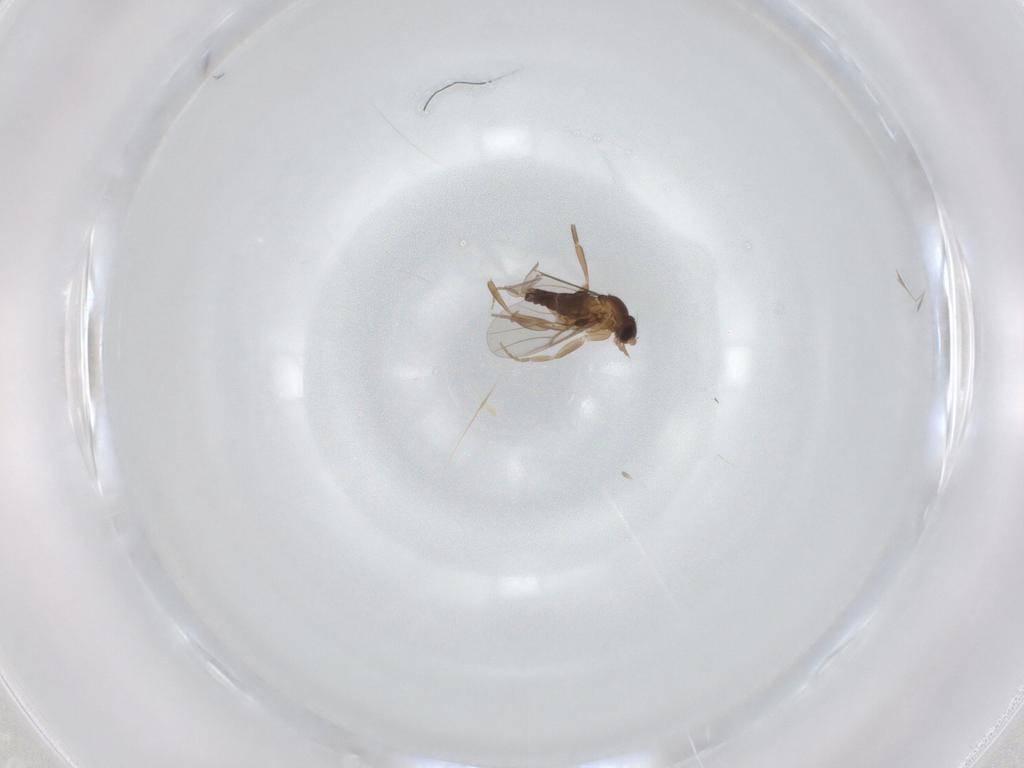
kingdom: Animalia
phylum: Arthropoda
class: Insecta
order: Diptera
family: Phoridae
